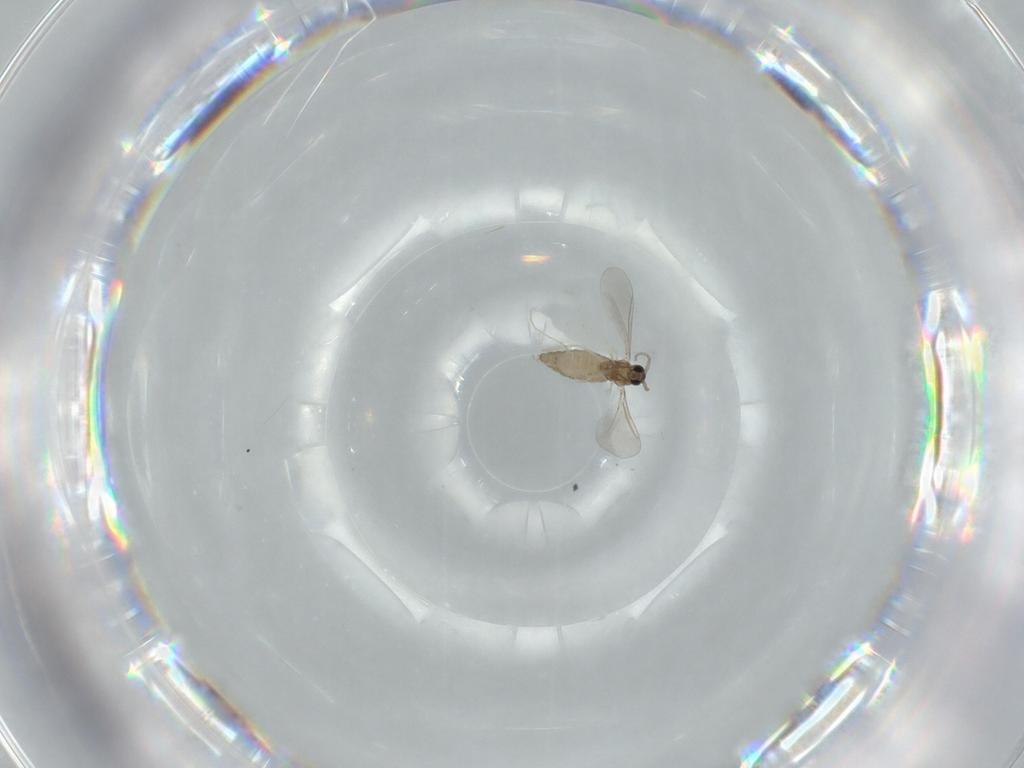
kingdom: Animalia
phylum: Arthropoda
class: Insecta
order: Diptera
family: Cecidomyiidae
